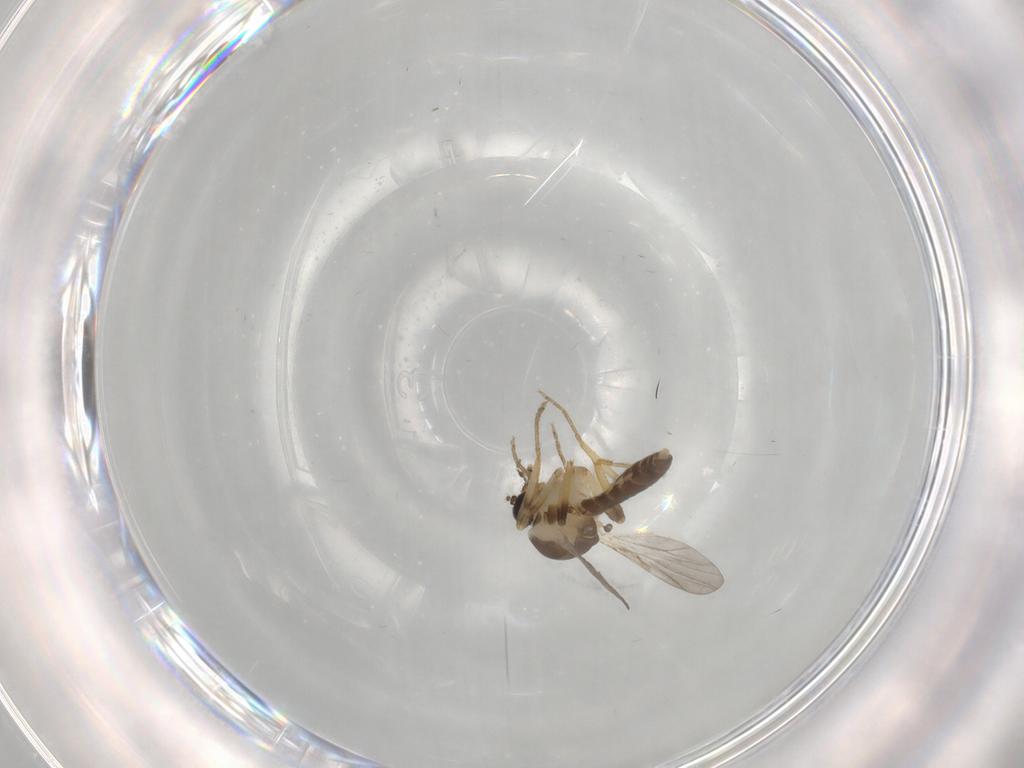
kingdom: Animalia
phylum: Arthropoda
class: Insecta
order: Diptera
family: Ceratopogonidae
